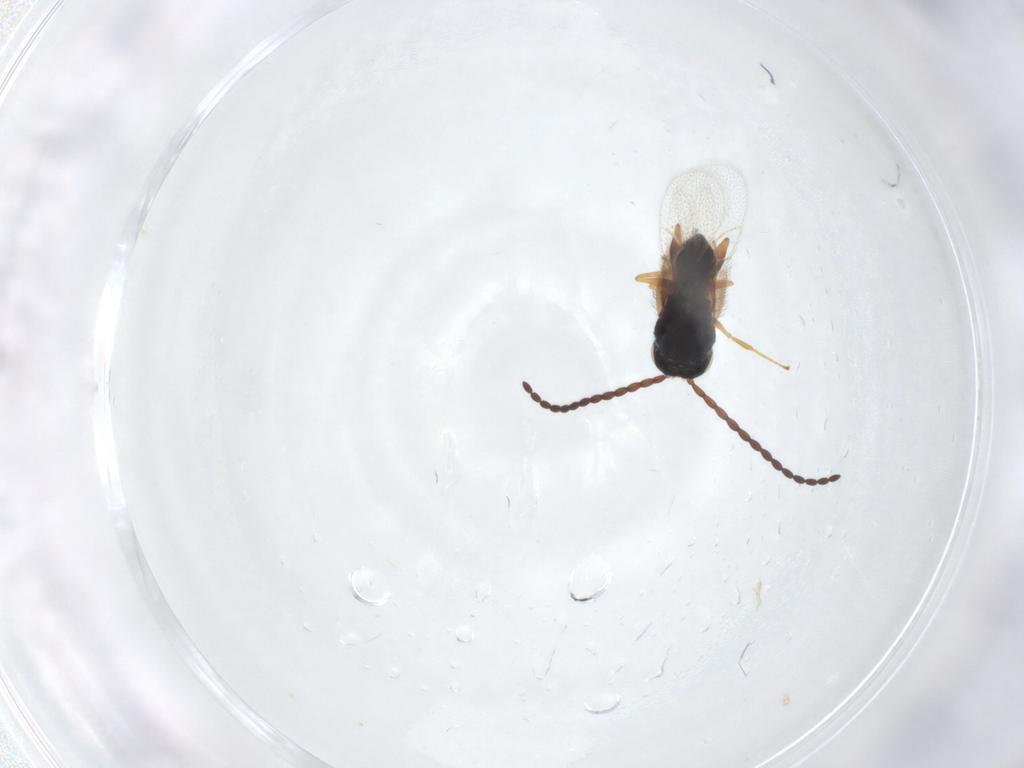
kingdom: Animalia
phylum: Arthropoda
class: Insecta
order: Hymenoptera
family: Figitidae
